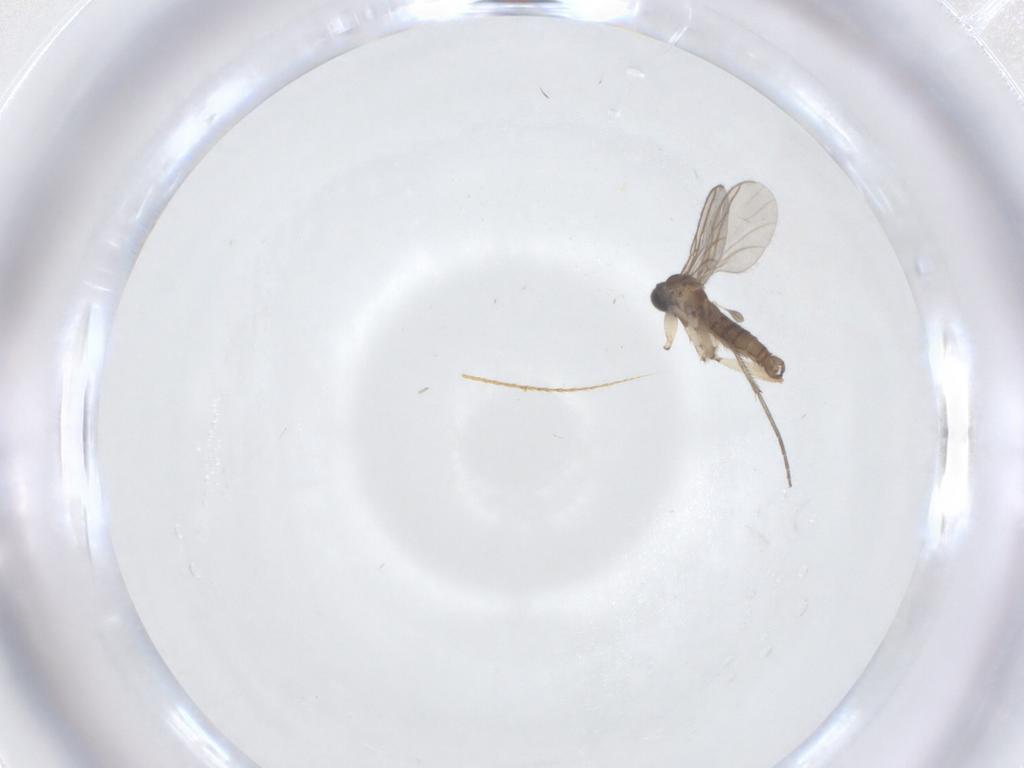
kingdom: Animalia
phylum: Arthropoda
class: Insecta
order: Diptera
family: Sciaridae
